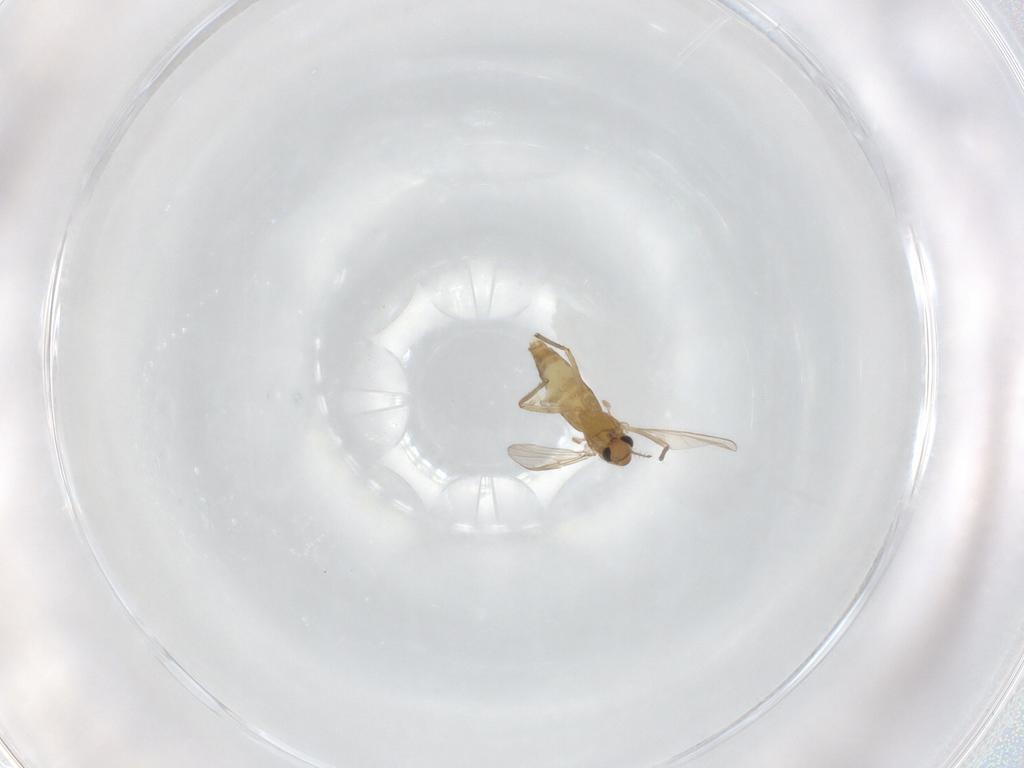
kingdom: Animalia
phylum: Arthropoda
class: Insecta
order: Diptera
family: Chironomidae
